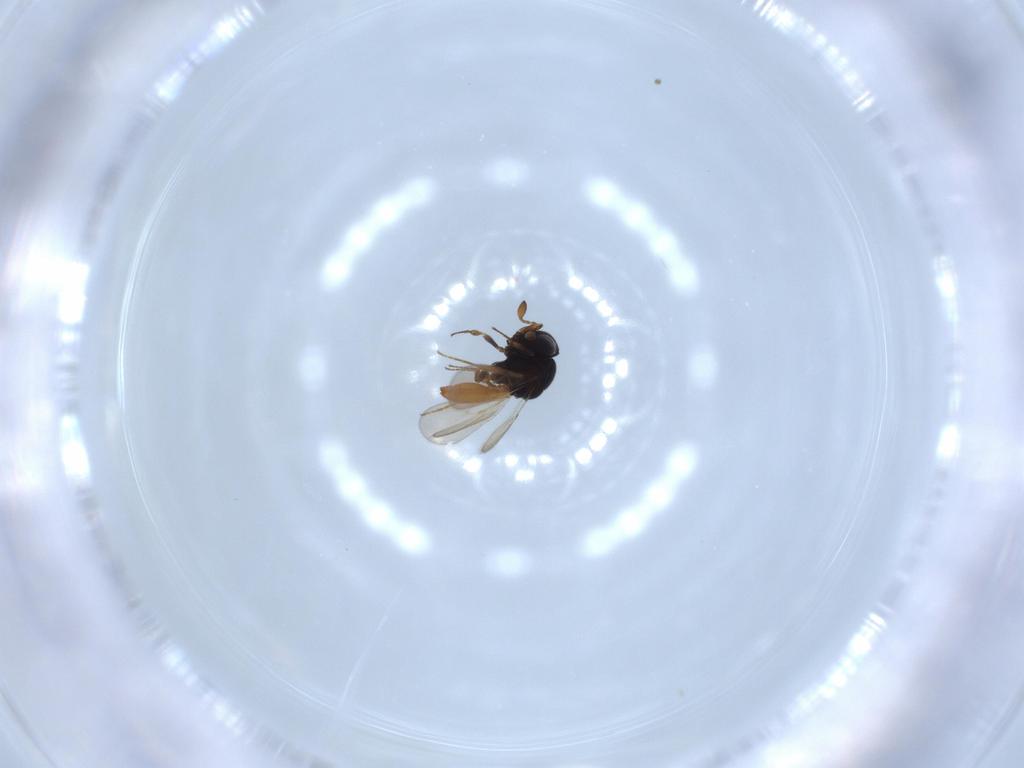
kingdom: Animalia
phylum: Arthropoda
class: Insecta
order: Hymenoptera
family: Scelionidae
